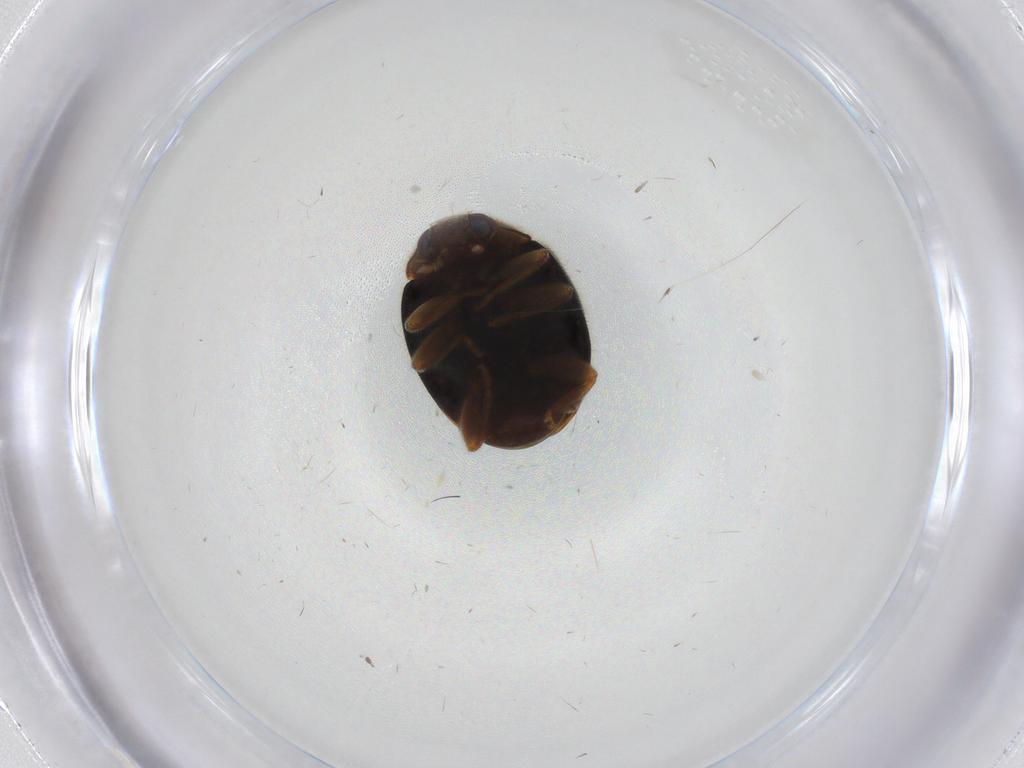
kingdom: Animalia
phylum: Arthropoda
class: Insecta
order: Coleoptera
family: Coccinellidae
